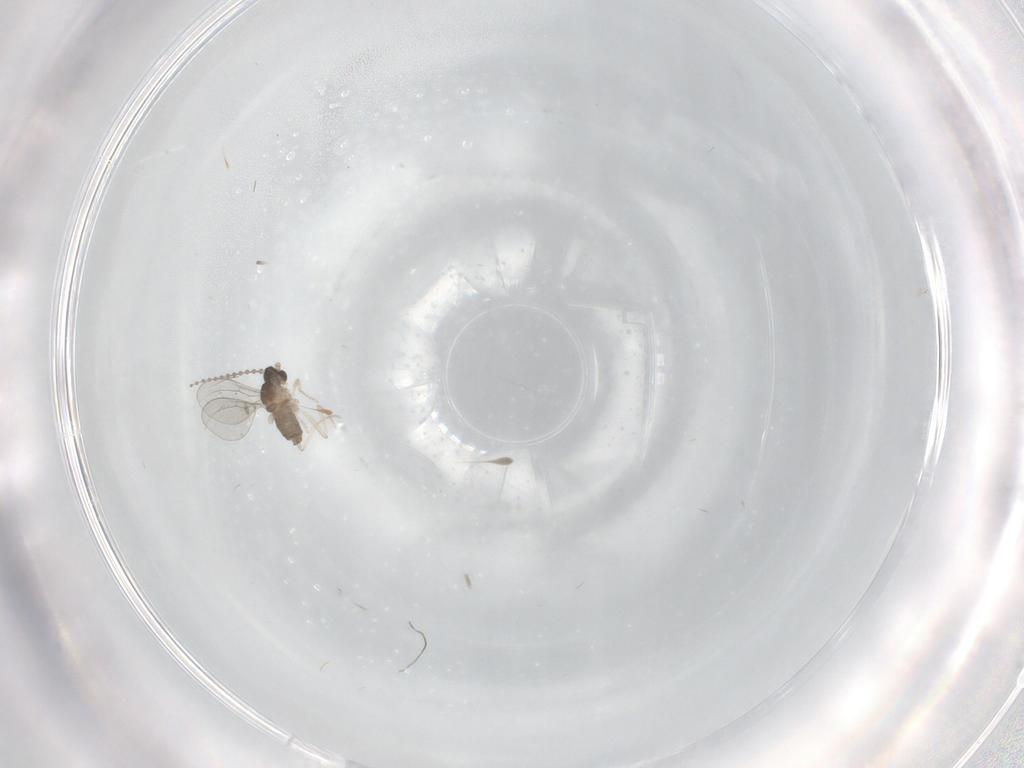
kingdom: Animalia
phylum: Arthropoda
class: Insecta
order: Diptera
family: Cecidomyiidae
